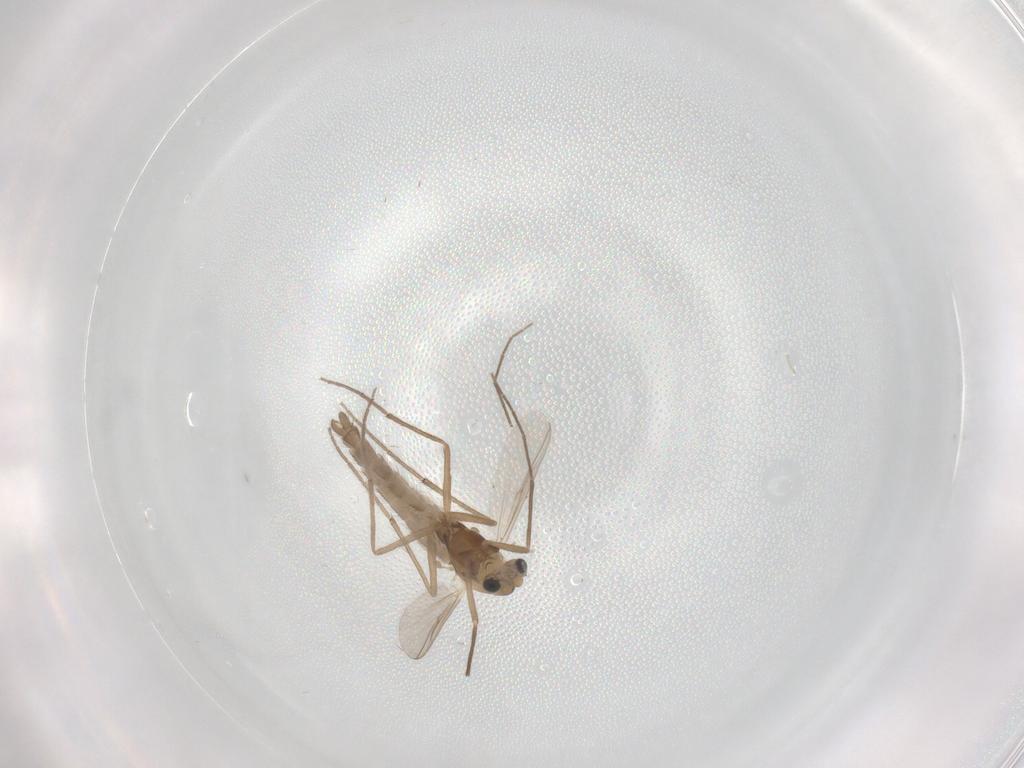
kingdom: Animalia
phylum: Arthropoda
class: Insecta
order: Diptera
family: Chironomidae
